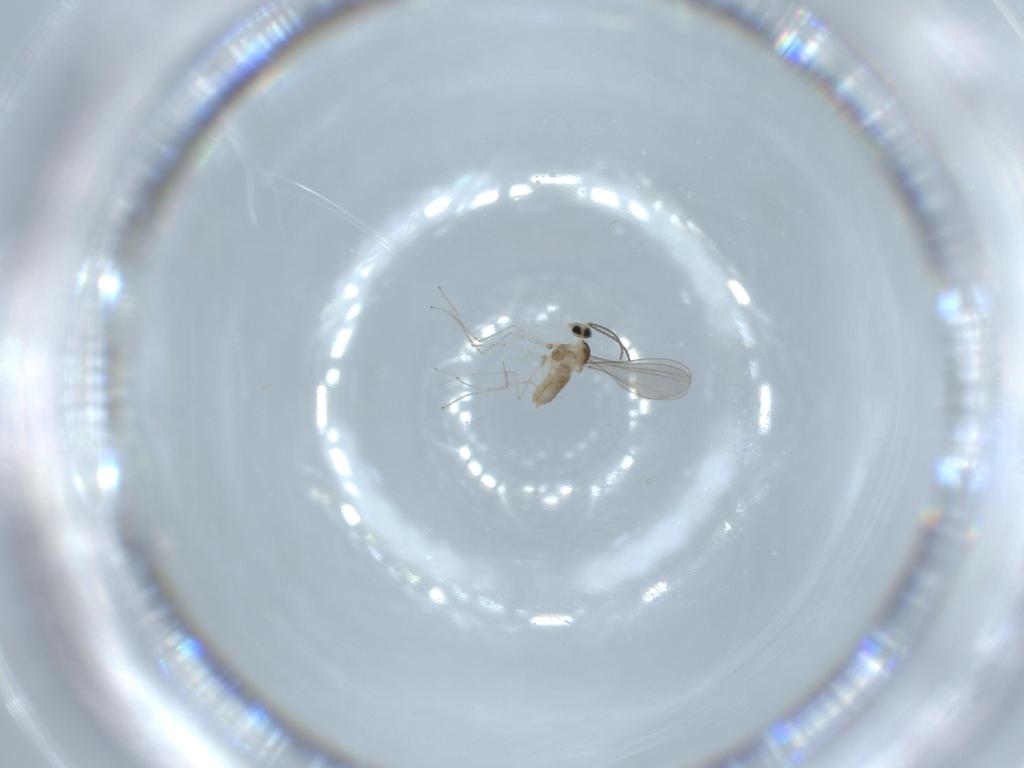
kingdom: Animalia
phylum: Arthropoda
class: Insecta
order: Diptera
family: Cecidomyiidae
